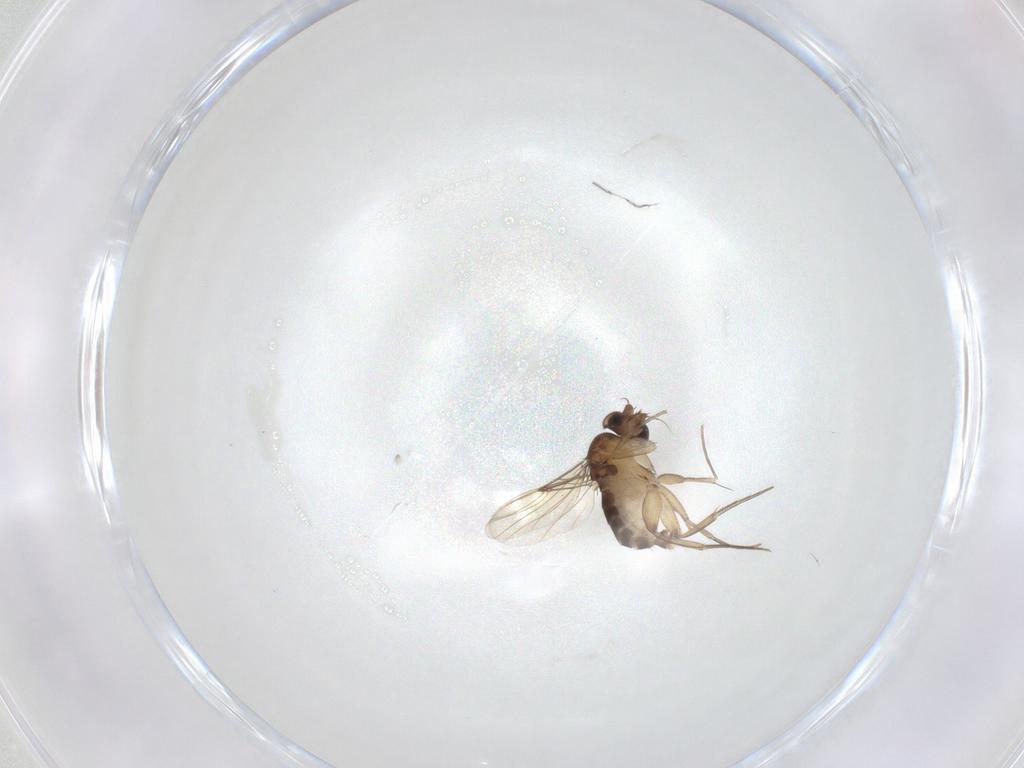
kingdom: Animalia
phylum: Arthropoda
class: Insecta
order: Diptera
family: Phoridae
